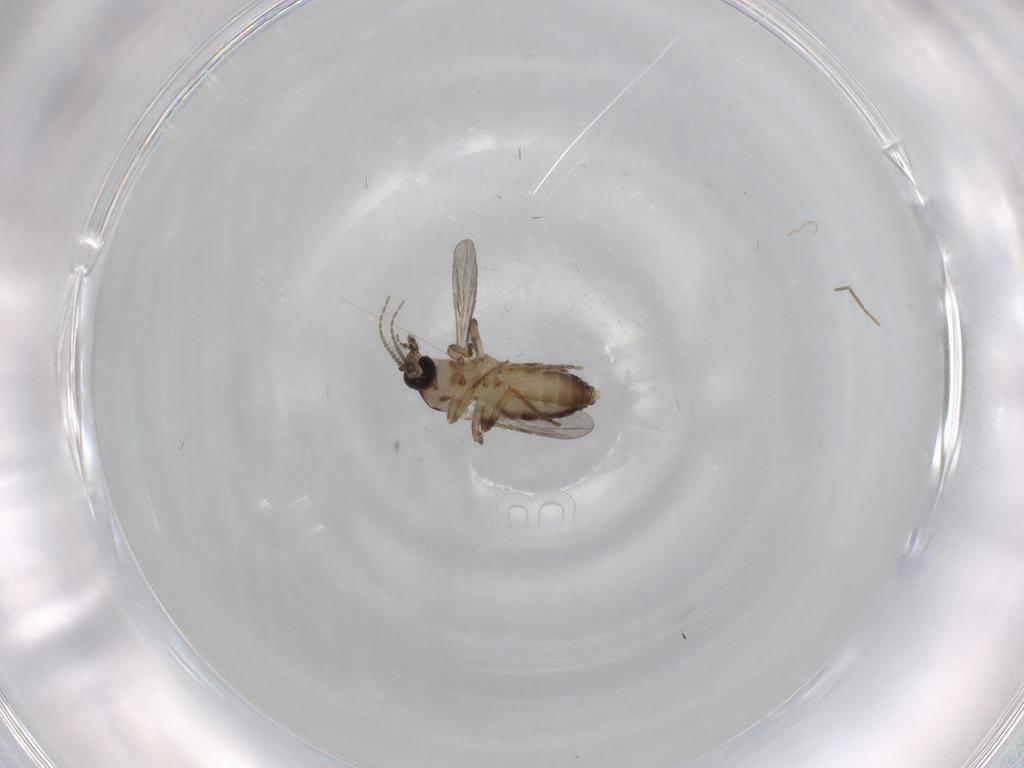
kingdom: Animalia
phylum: Arthropoda
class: Insecta
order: Diptera
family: Ceratopogonidae
